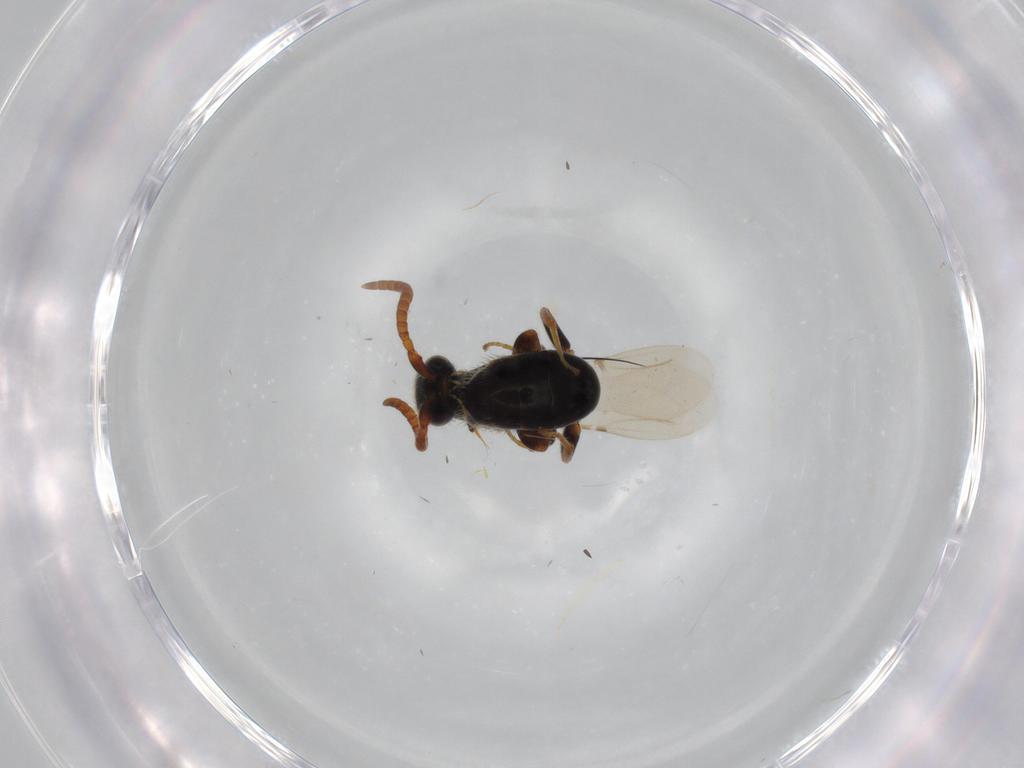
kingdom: Animalia
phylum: Arthropoda
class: Insecta
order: Hymenoptera
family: Bethylidae
